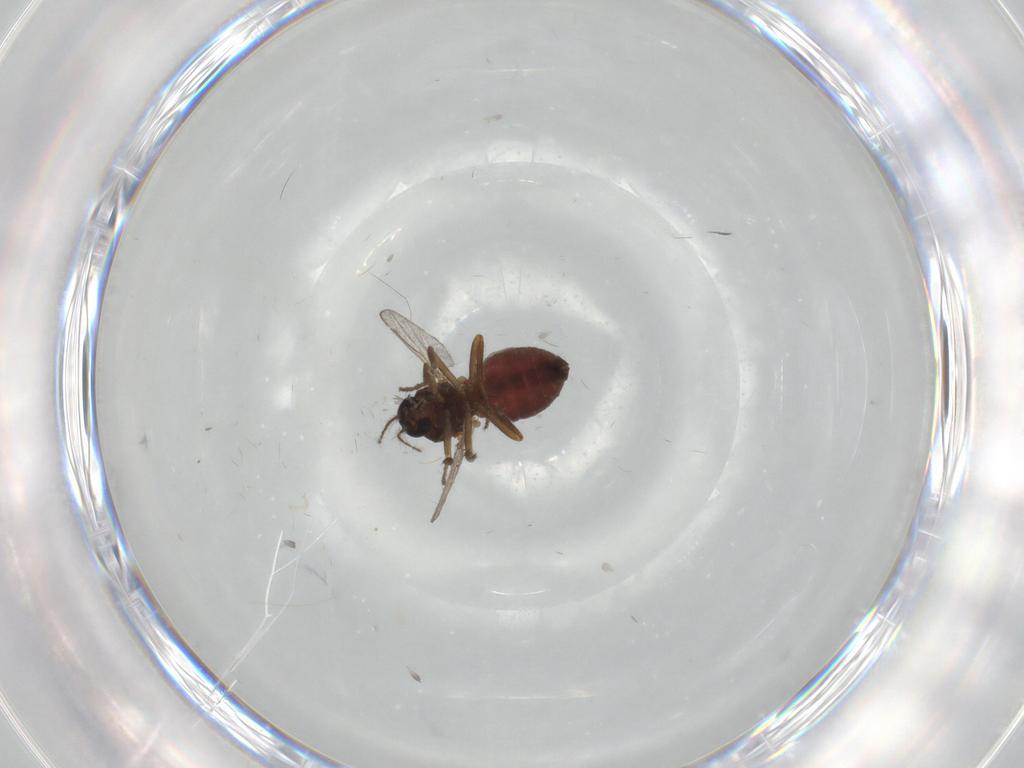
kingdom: Animalia
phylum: Arthropoda
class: Insecta
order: Diptera
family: Ceratopogonidae
